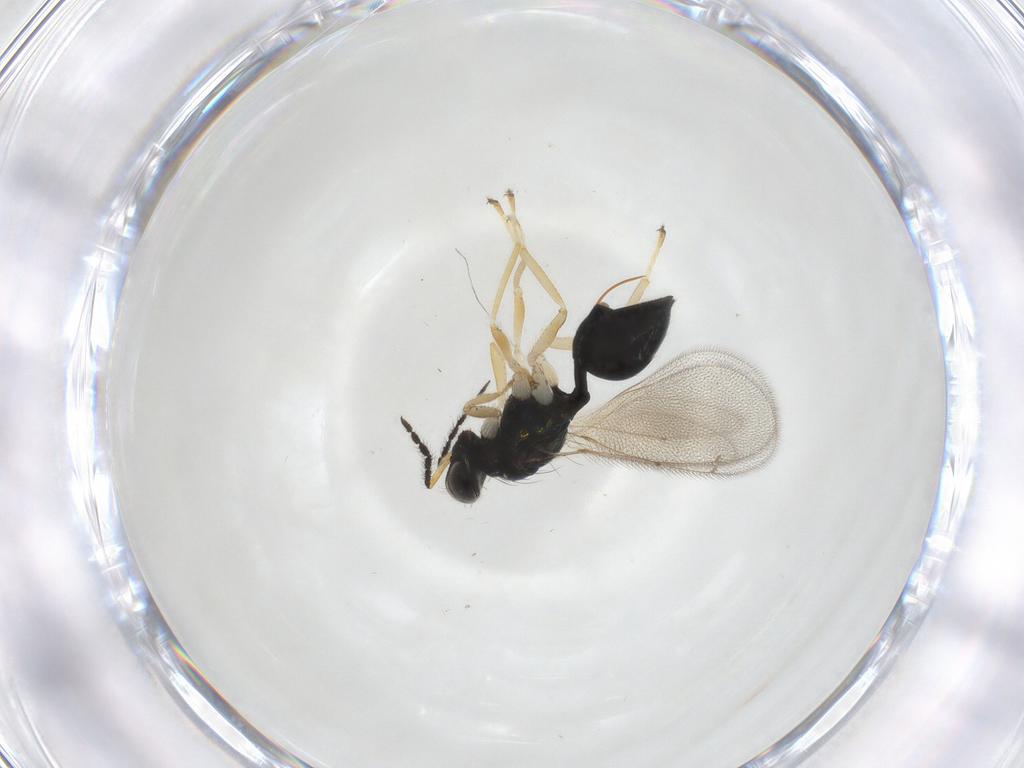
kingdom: Animalia
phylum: Arthropoda
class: Insecta
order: Hymenoptera
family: Eulophidae
